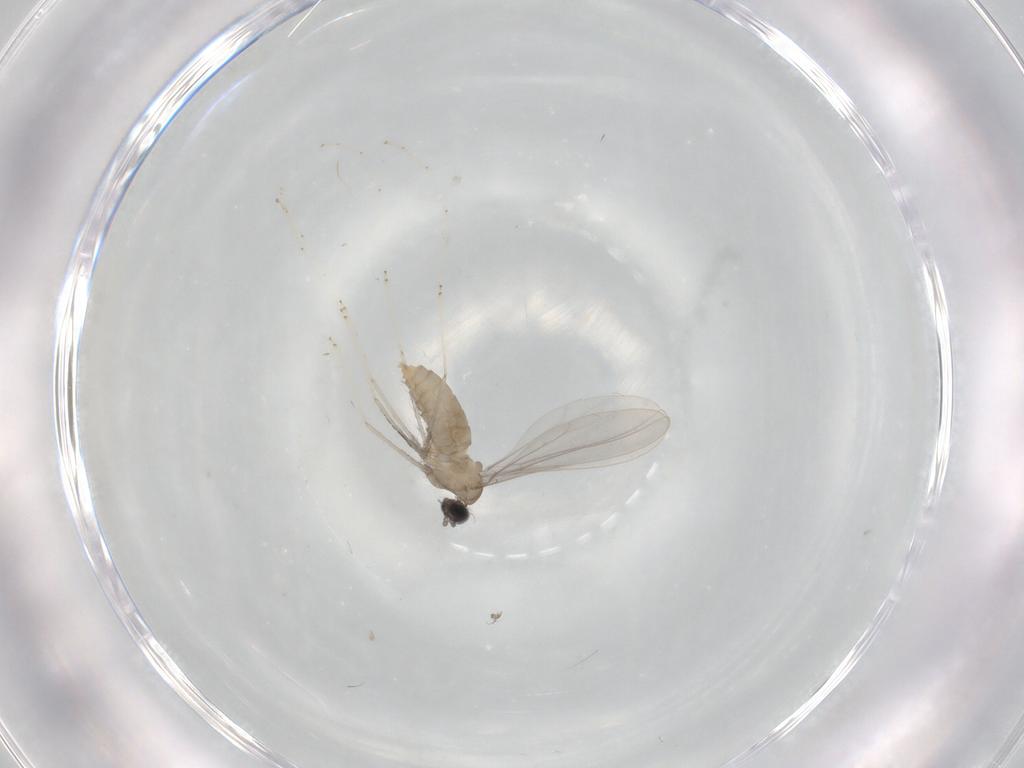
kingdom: Animalia
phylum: Arthropoda
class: Insecta
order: Diptera
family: Cecidomyiidae
